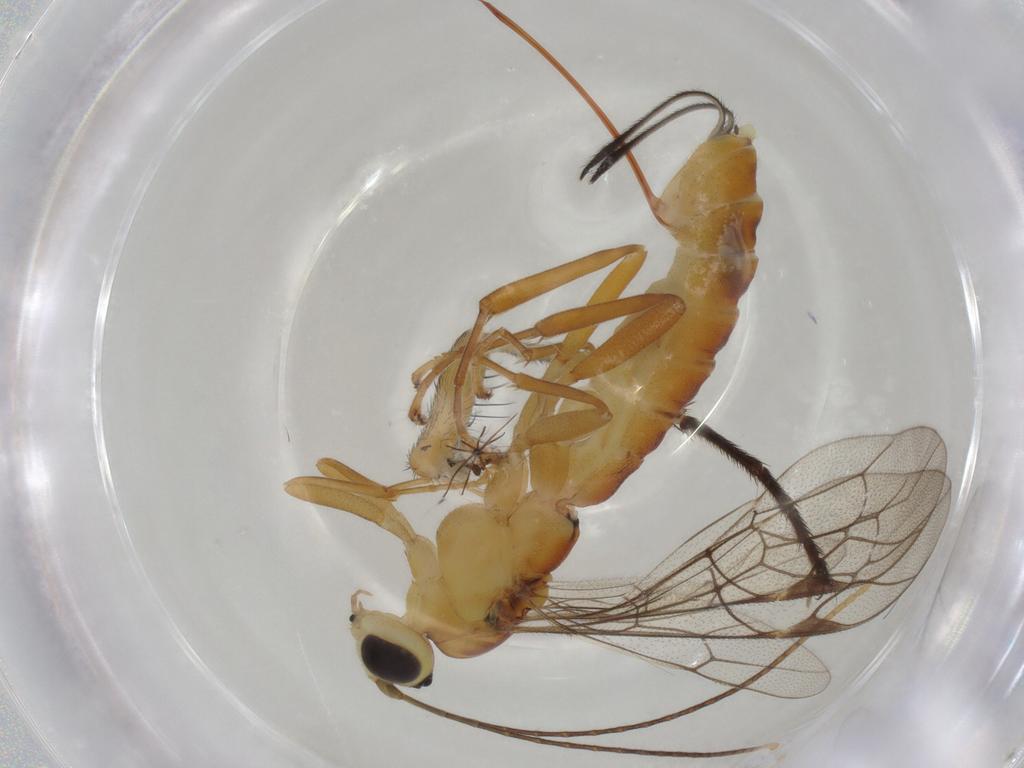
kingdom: Animalia
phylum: Arthropoda
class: Insecta
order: Hymenoptera
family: Ichneumonidae
